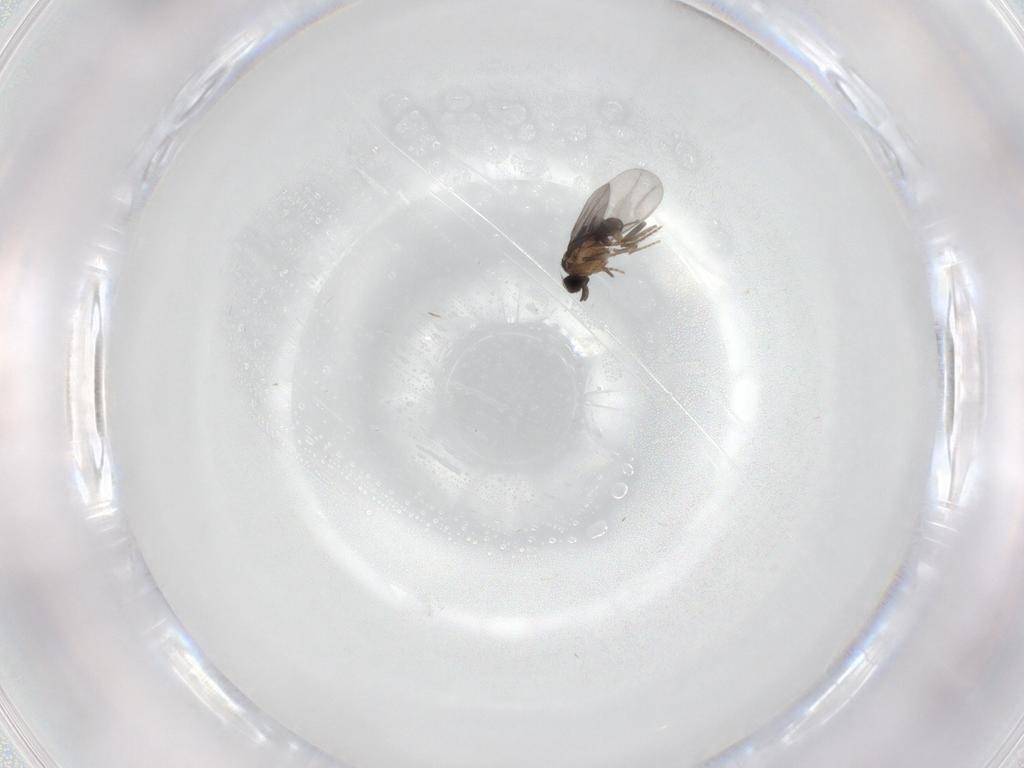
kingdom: Animalia
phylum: Arthropoda
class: Insecta
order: Diptera
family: Limoniidae
